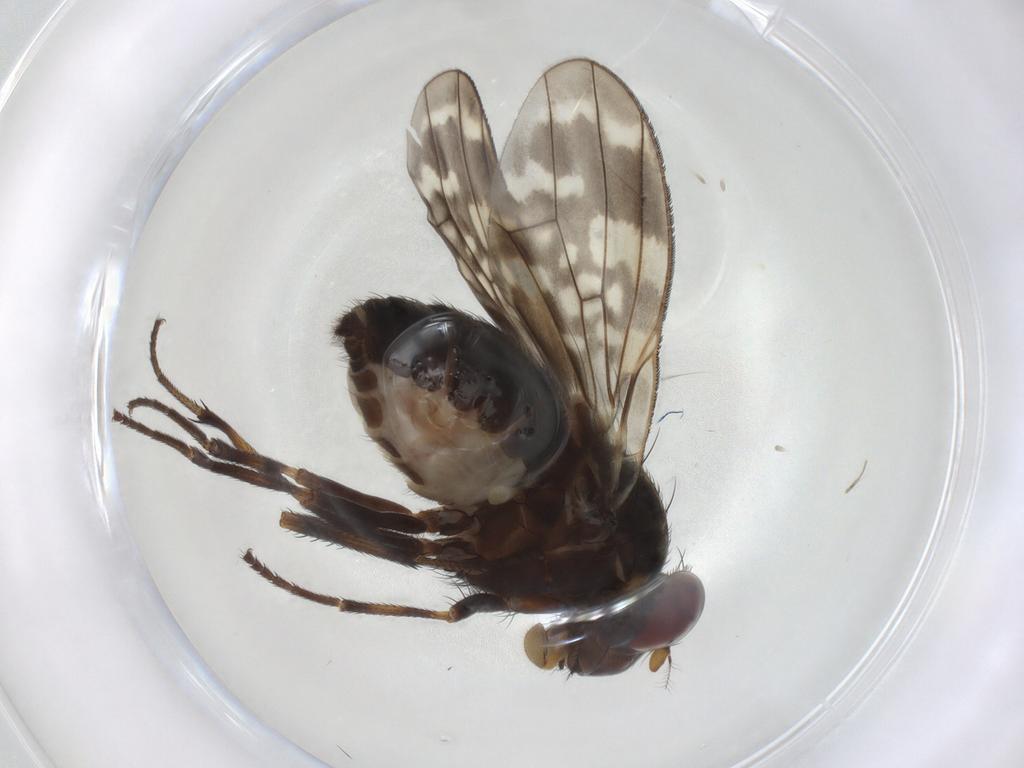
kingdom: Animalia
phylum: Arthropoda
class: Insecta
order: Diptera
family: Lauxaniidae
